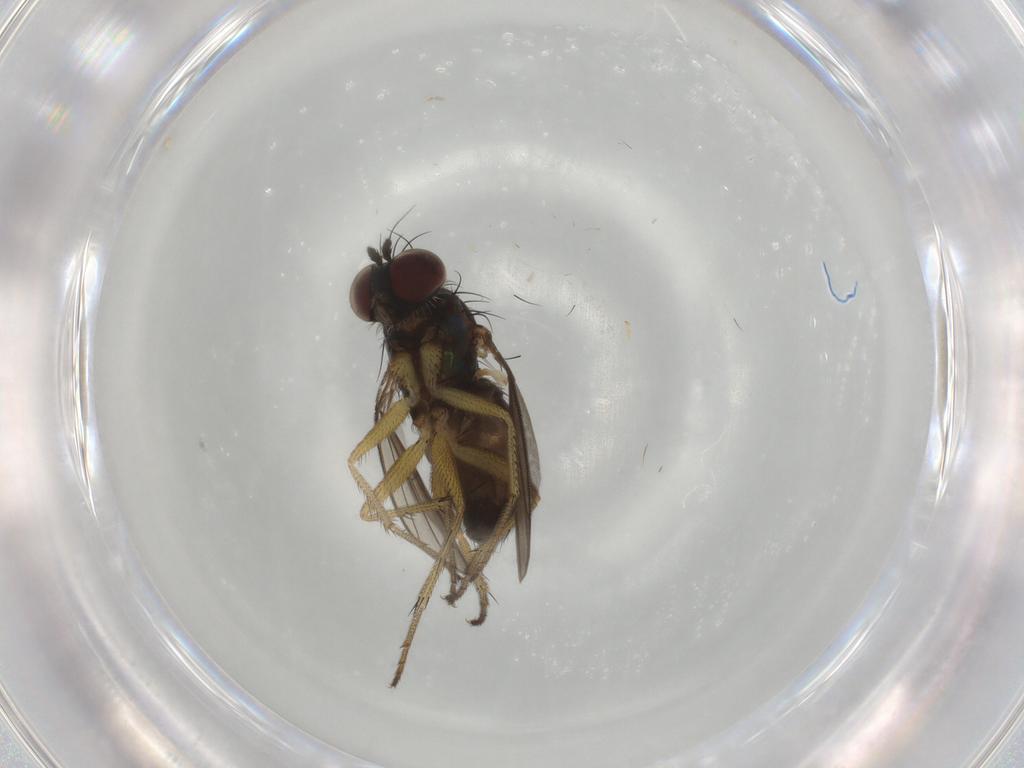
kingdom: Animalia
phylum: Arthropoda
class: Insecta
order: Diptera
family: Dolichopodidae
